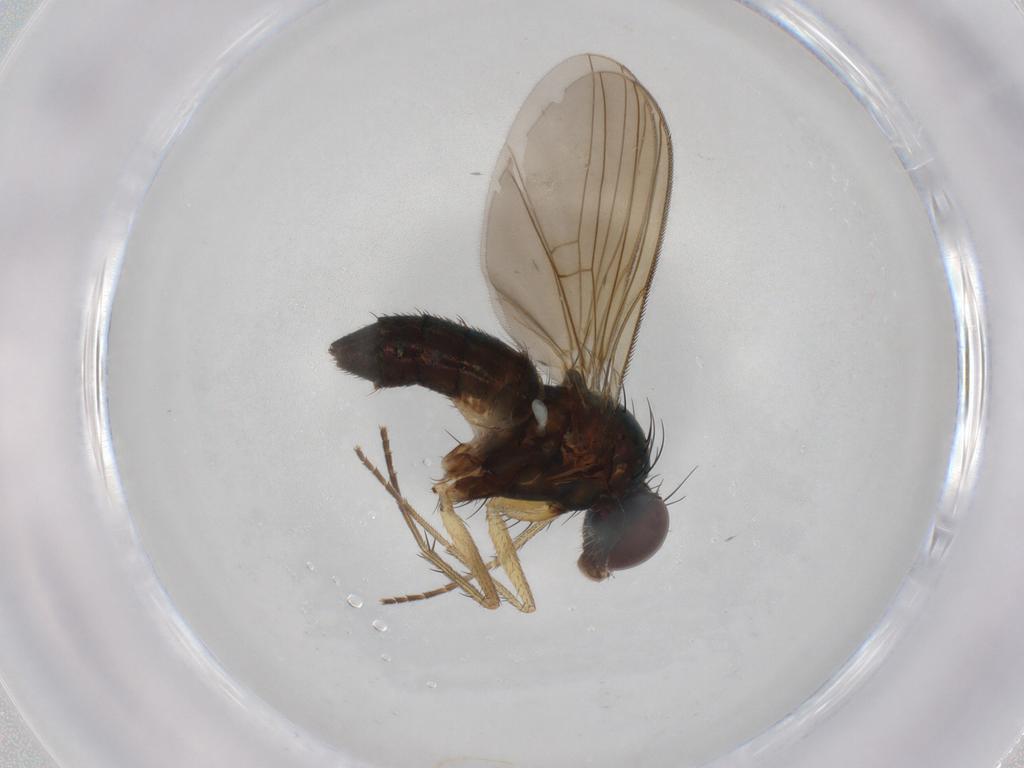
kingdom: Animalia
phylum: Arthropoda
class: Insecta
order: Diptera
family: Dolichopodidae
